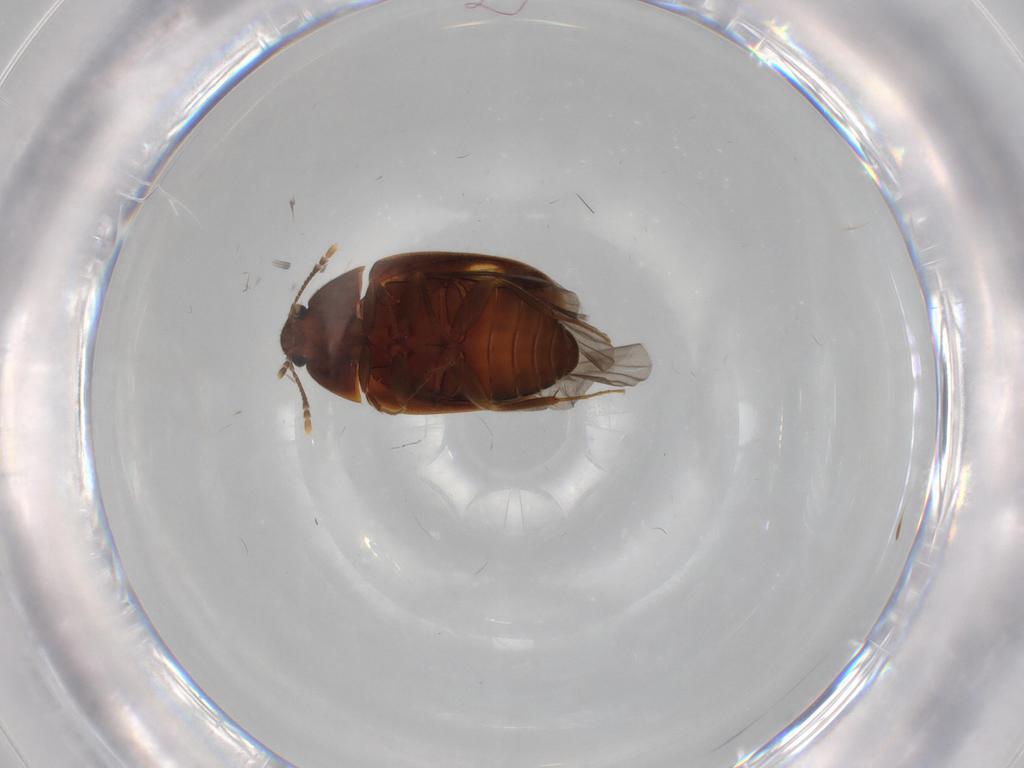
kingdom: Animalia
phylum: Arthropoda
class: Insecta
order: Coleoptera
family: Mycetophagidae
